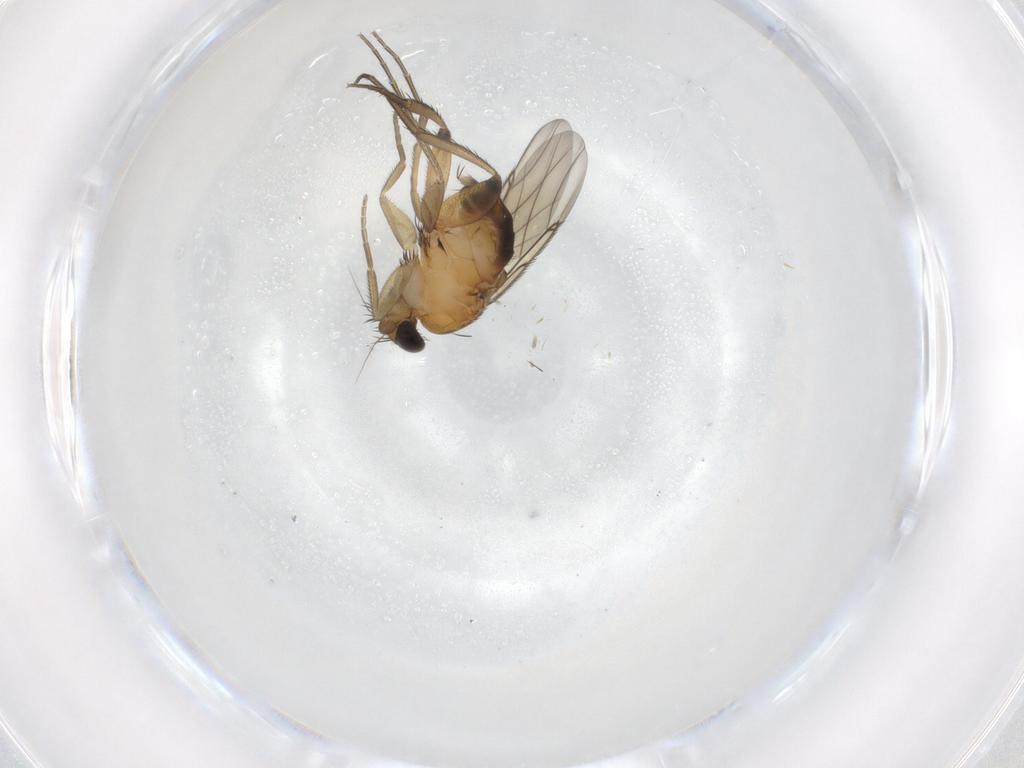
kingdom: Animalia
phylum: Arthropoda
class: Insecta
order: Diptera
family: Phoridae
